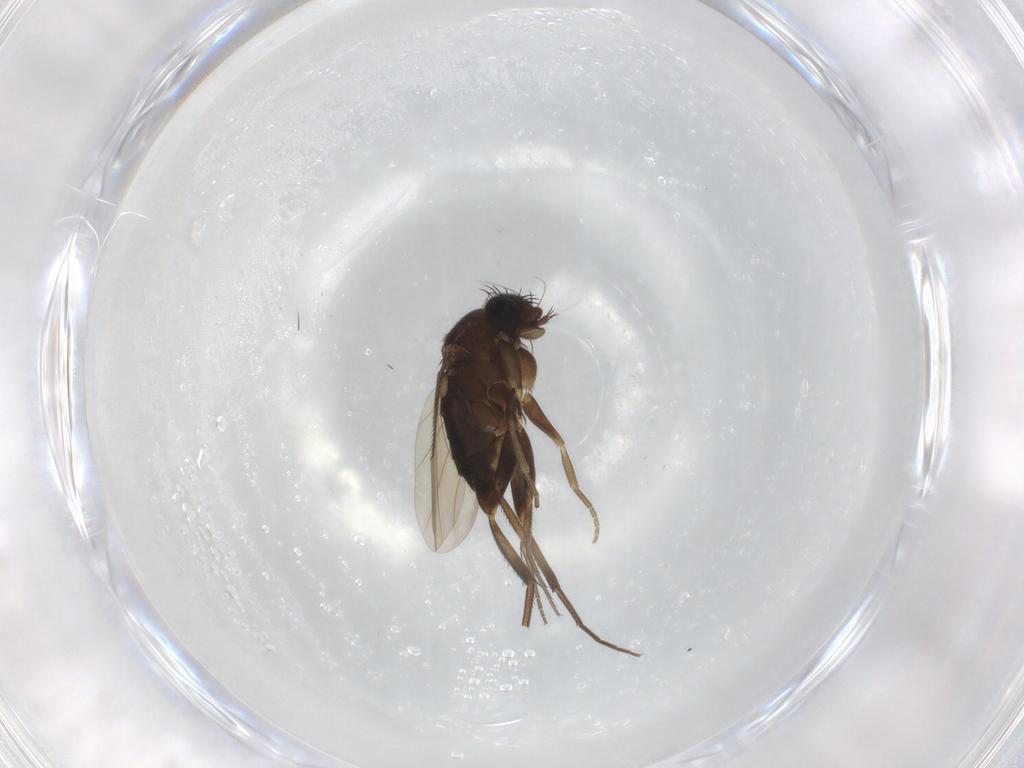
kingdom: Animalia
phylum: Arthropoda
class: Insecta
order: Diptera
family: Phoridae
